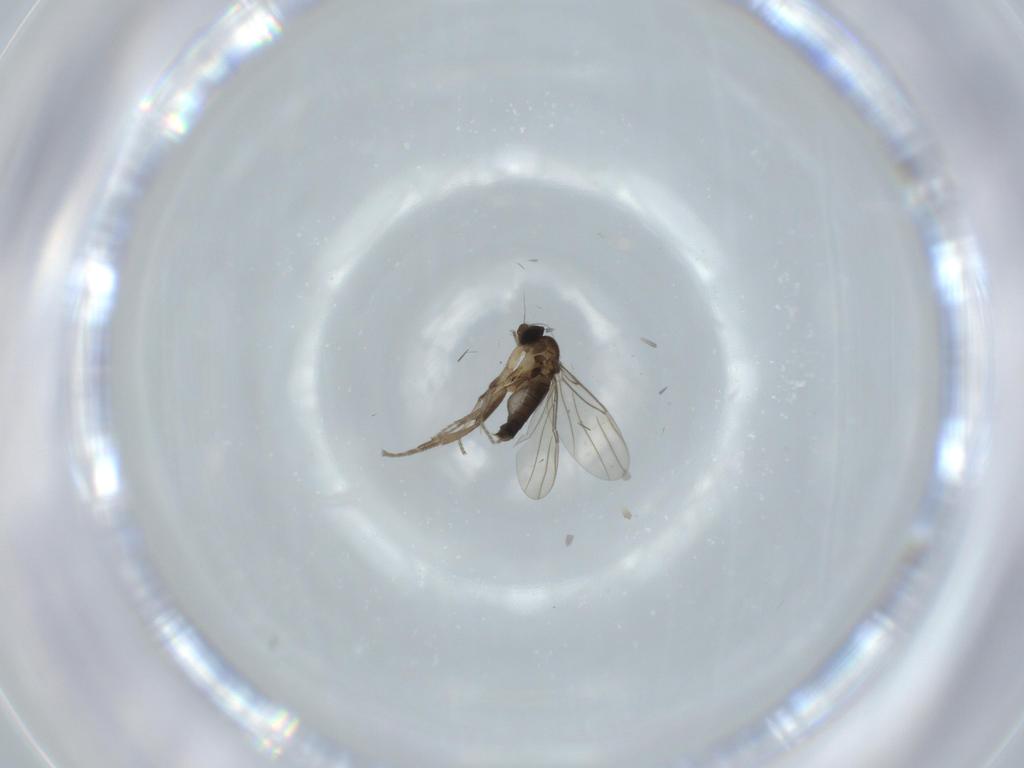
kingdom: Animalia
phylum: Arthropoda
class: Insecta
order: Diptera
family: Phoridae
